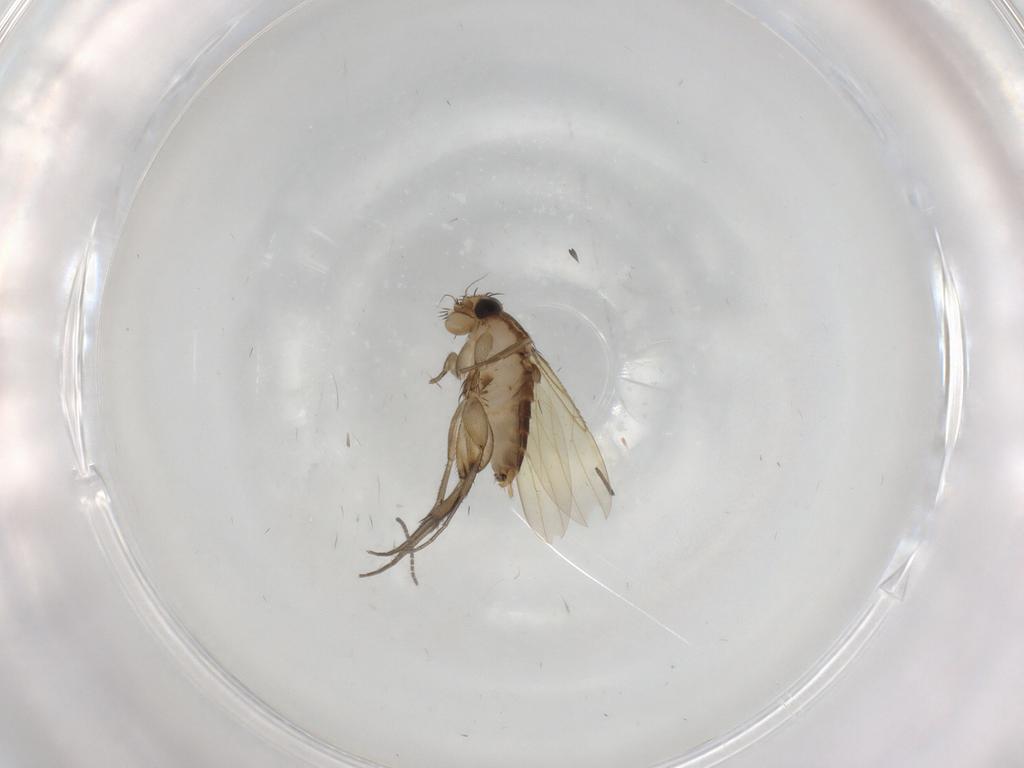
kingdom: Animalia
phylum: Arthropoda
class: Insecta
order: Diptera
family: Phoridae
